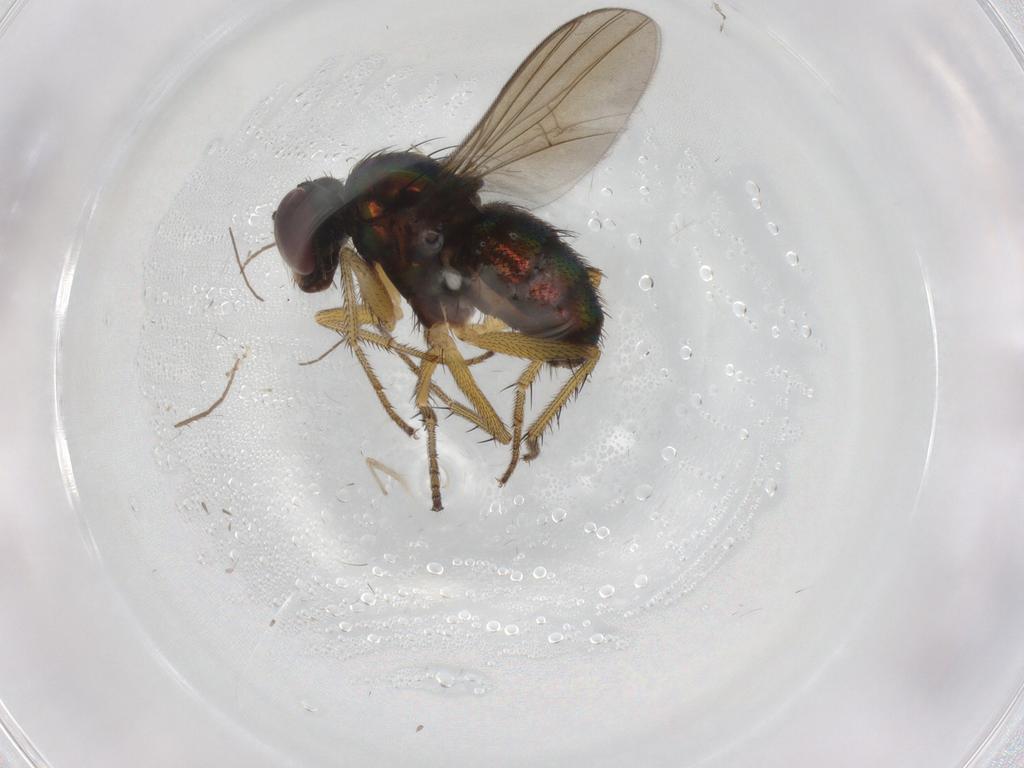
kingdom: Animalia
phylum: Arthropoda
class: Insecta
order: Diptera
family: Dolichopodidae
